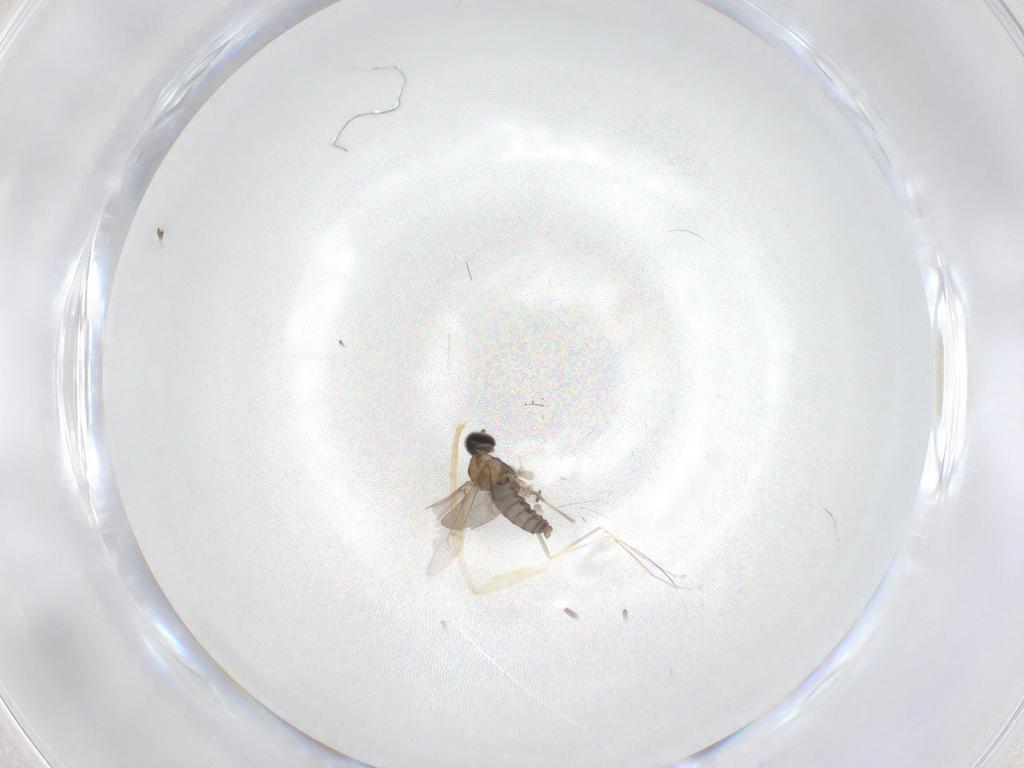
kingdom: Animalia
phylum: Arthropoda
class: Insecta
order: Diptera
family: Cecidomyiidae
